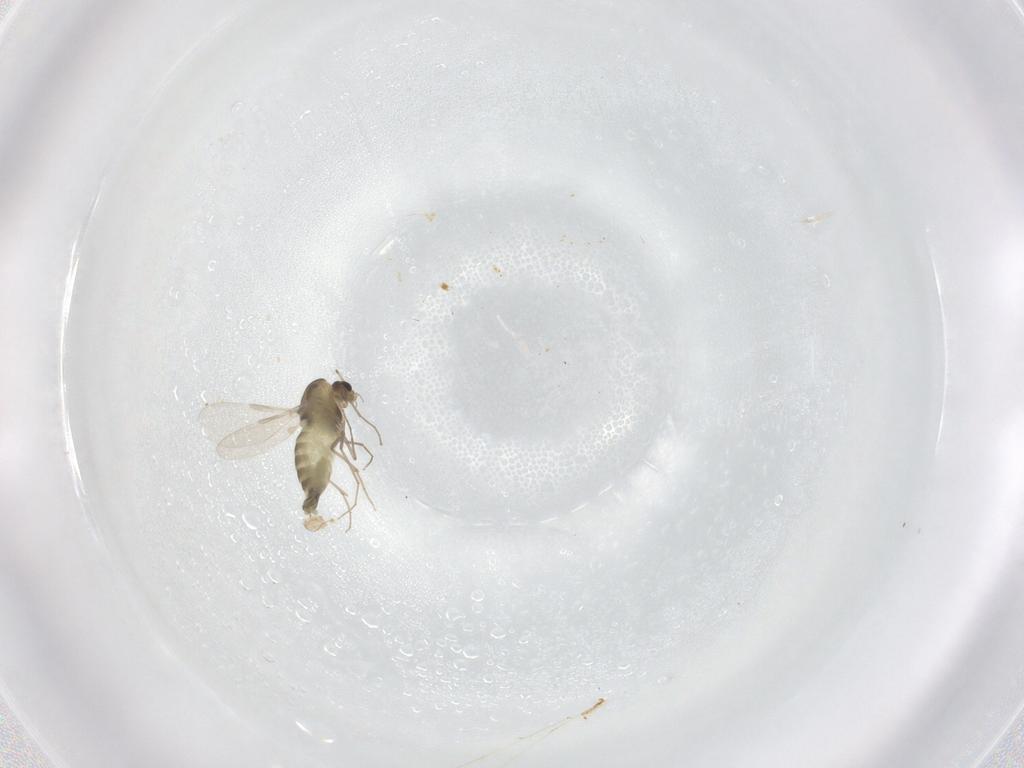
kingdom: Animalia
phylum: Arthropoda
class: Insecta
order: Diptera
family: Chironomidae
